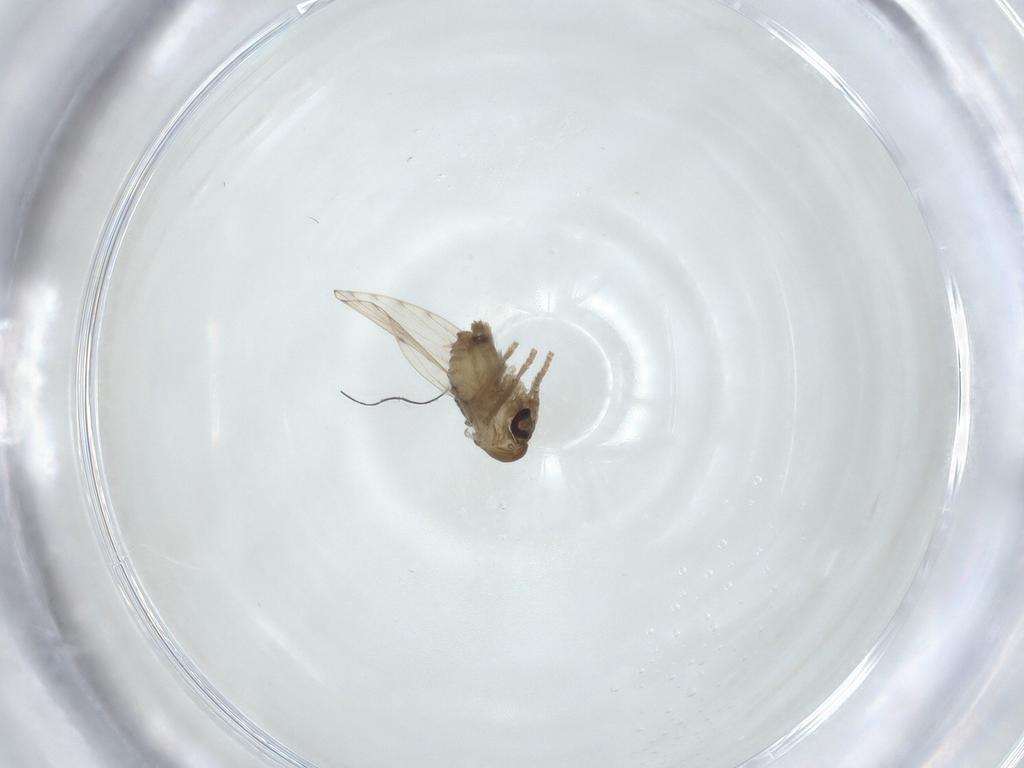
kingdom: Animalia
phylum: Arthropoda
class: Insecta
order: Diptera
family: Psychodidae
